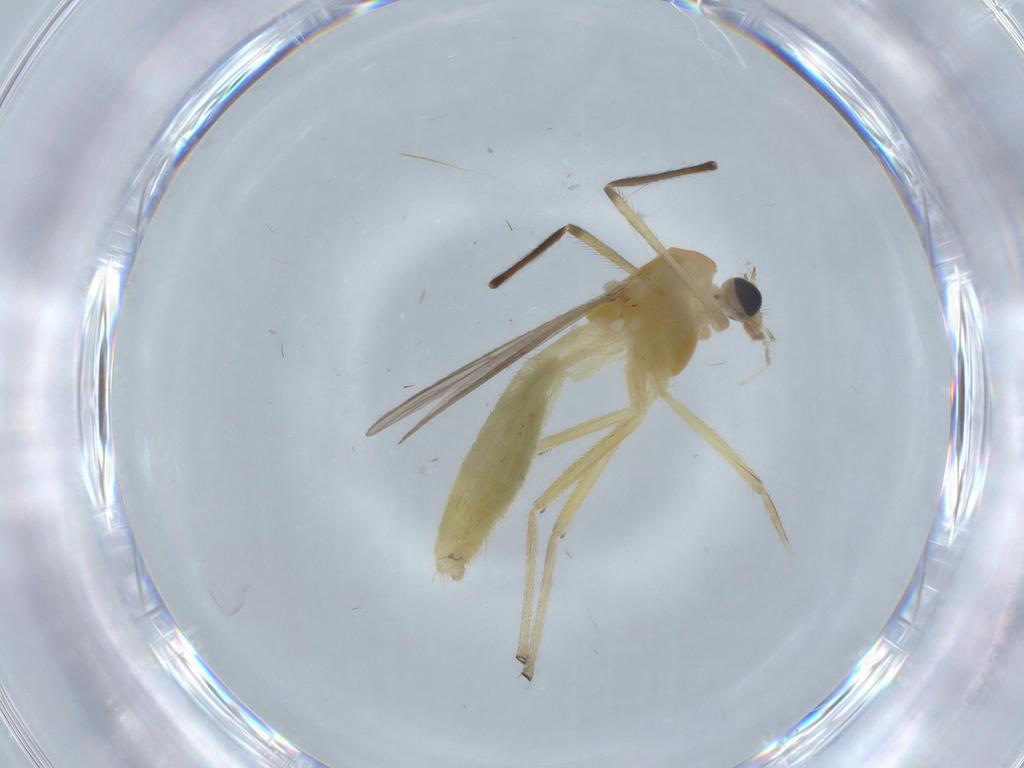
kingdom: Animalia
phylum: Arthropoda
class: Insecta
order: Diptera
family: Chironomidae
